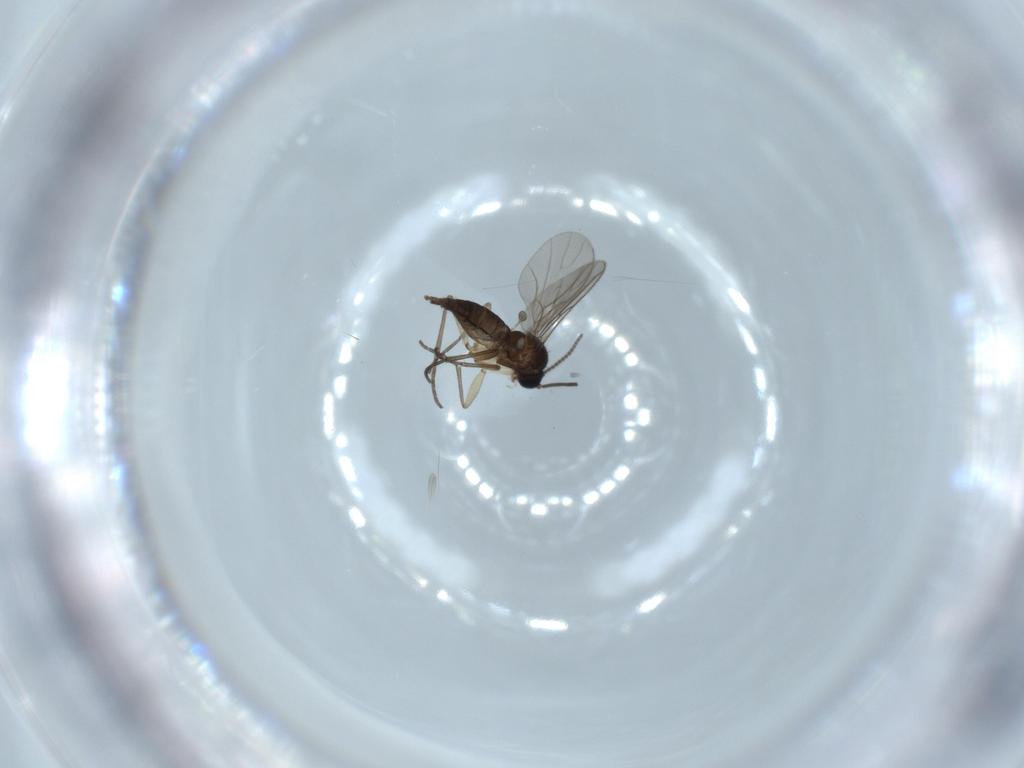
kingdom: Animalia
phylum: Arthropoda
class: Insecta
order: Diptera
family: Sciaridae
